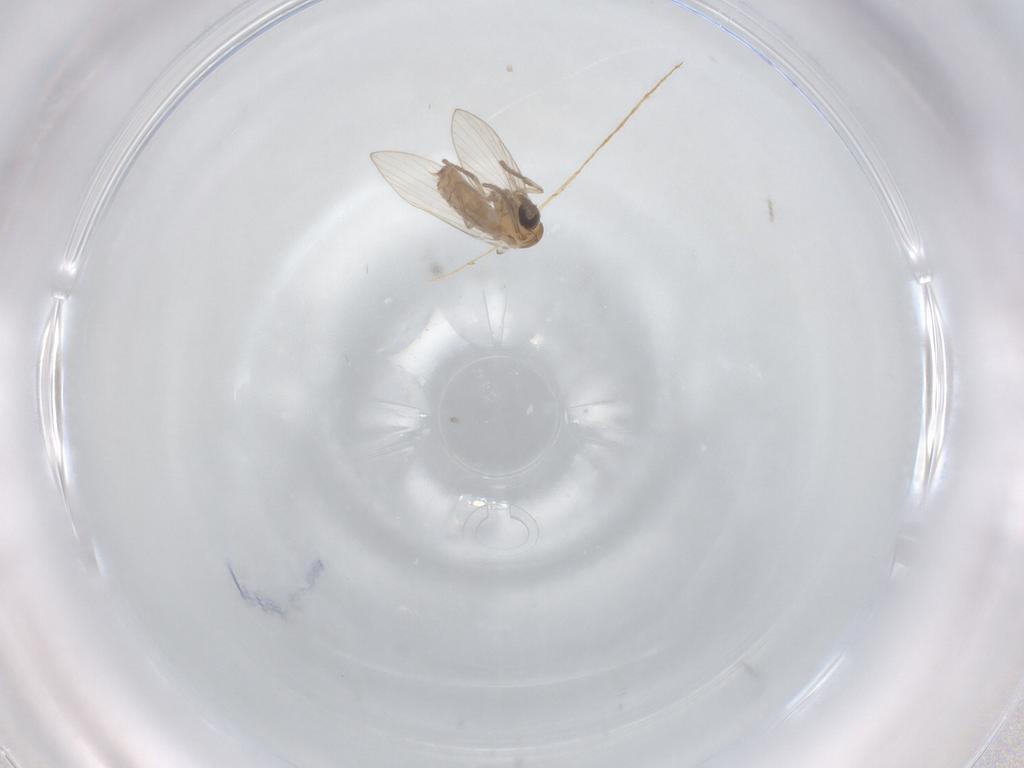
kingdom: Animalia
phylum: Arthropoda
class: Insecta
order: Diptera
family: Psychodidae
